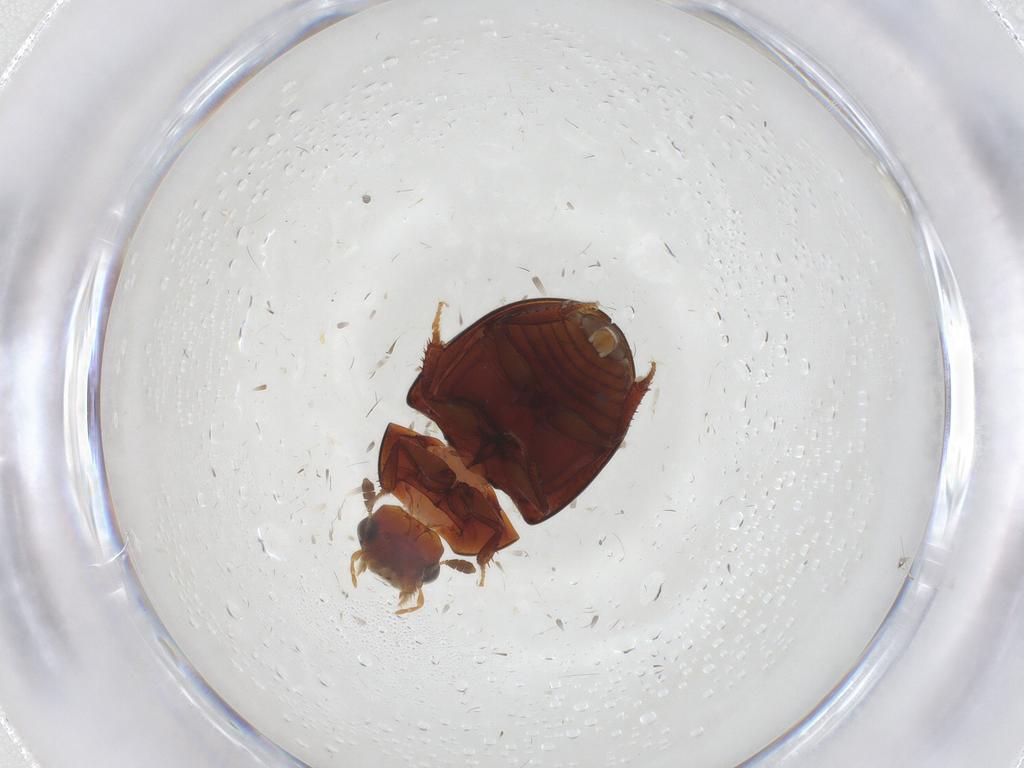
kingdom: Animalia
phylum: Arthropoda
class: Insecta
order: Coleoptera
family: Hydrophilidae
